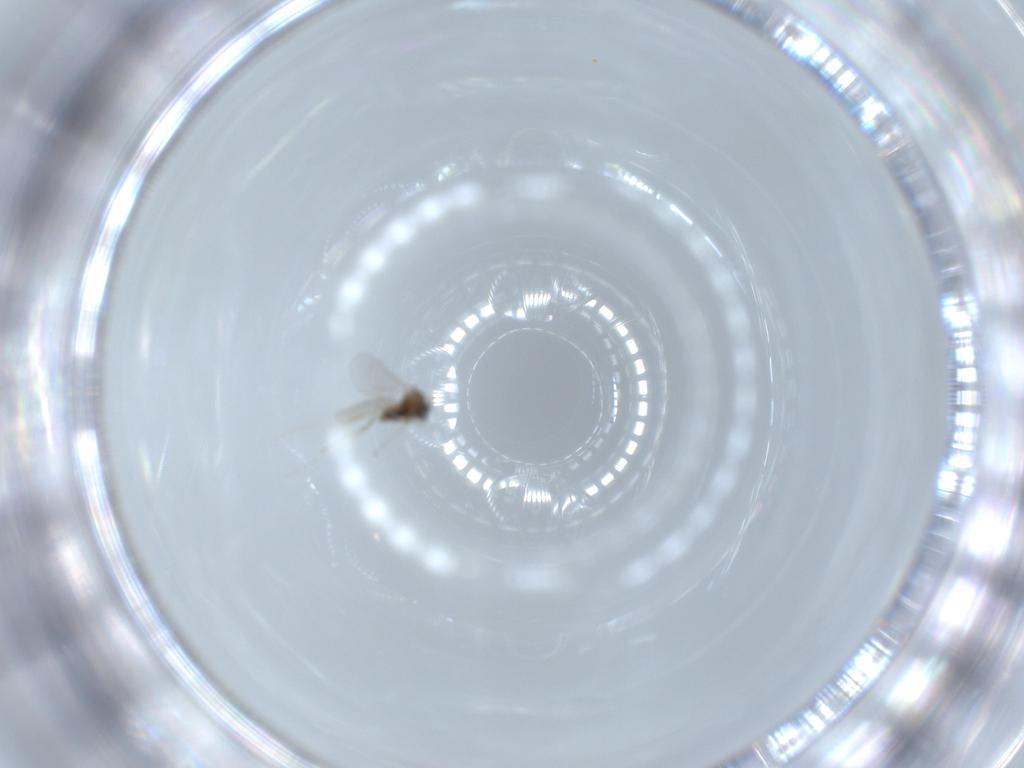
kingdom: Animalia
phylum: Arthropoda
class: Insecta
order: Diptera
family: Cecidomyiidae
